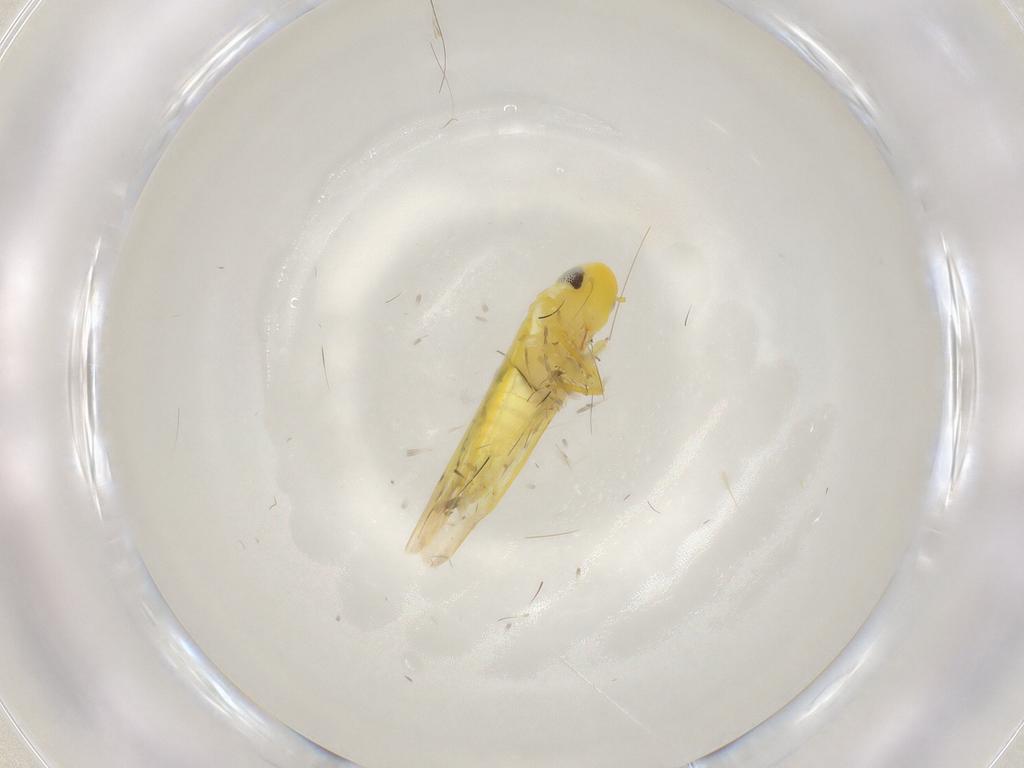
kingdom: Animalia
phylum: Arthropoda
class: Insecta
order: Hemiptera
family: Cicadellidae
